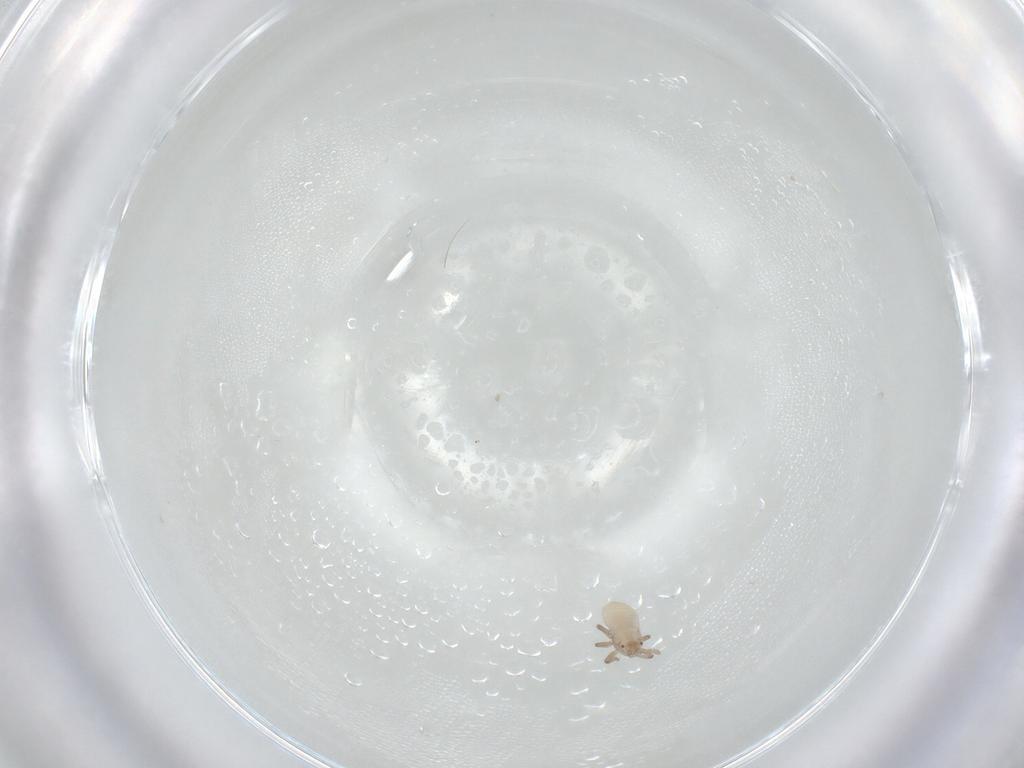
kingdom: Animalia
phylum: Arthropoda
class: Insecta
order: Hemiptera
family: Aphididae
